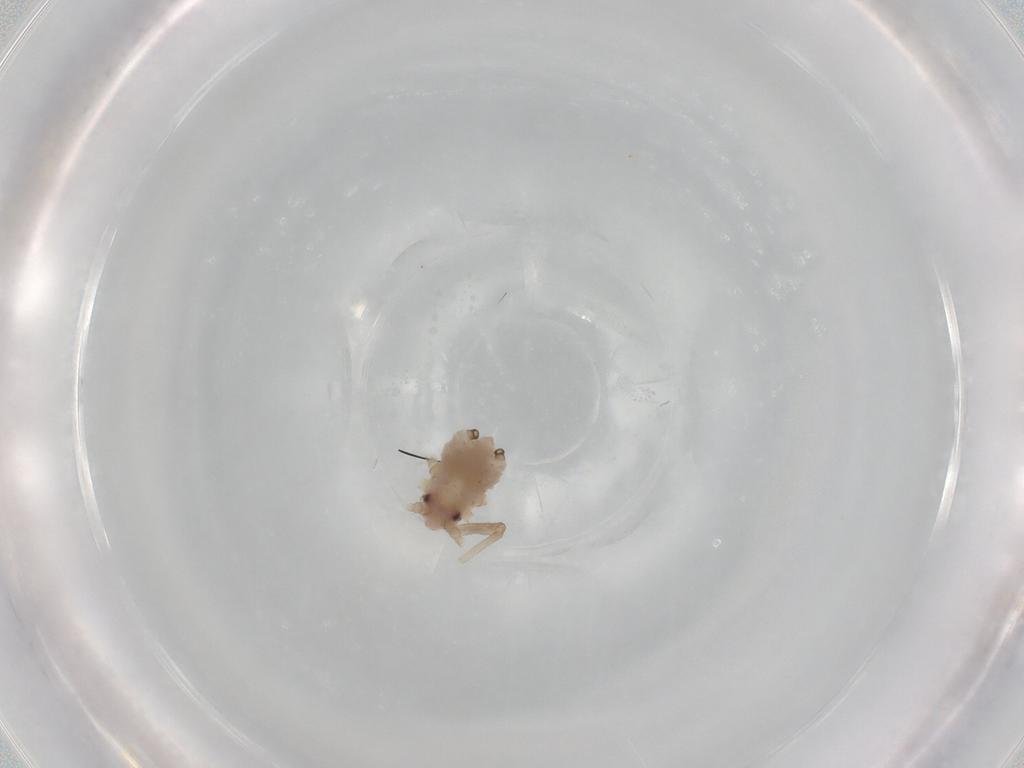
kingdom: Animalia
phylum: Arthropoda
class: Insecta
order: Hemiptera
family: Aphididae
